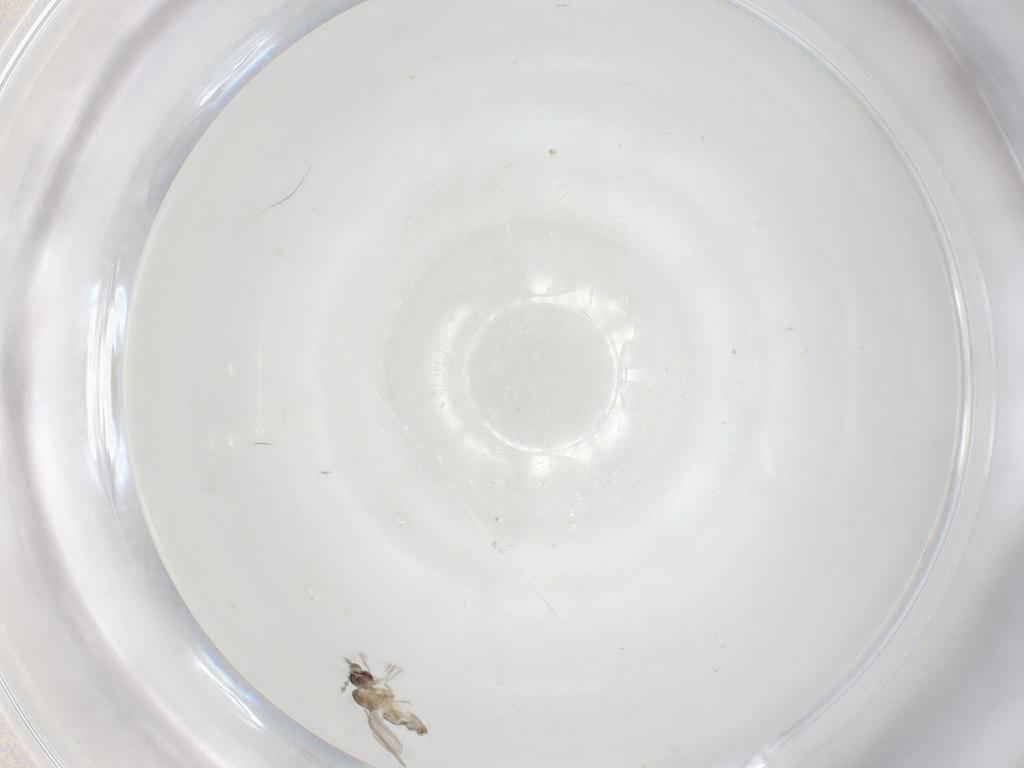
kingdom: Animalia
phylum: Arthropoda
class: Insecta
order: Diptera
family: Cecidomyiidae
